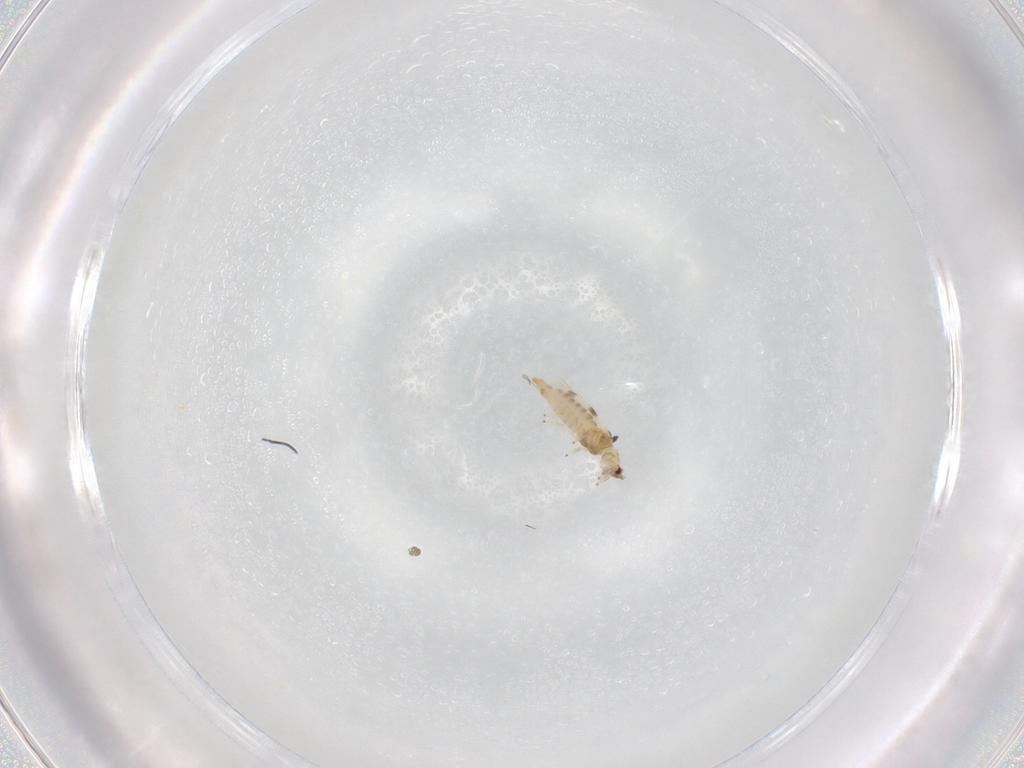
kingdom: Animalia
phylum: Arthropoda
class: Insecta
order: Thysanoptera
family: Thripidae
